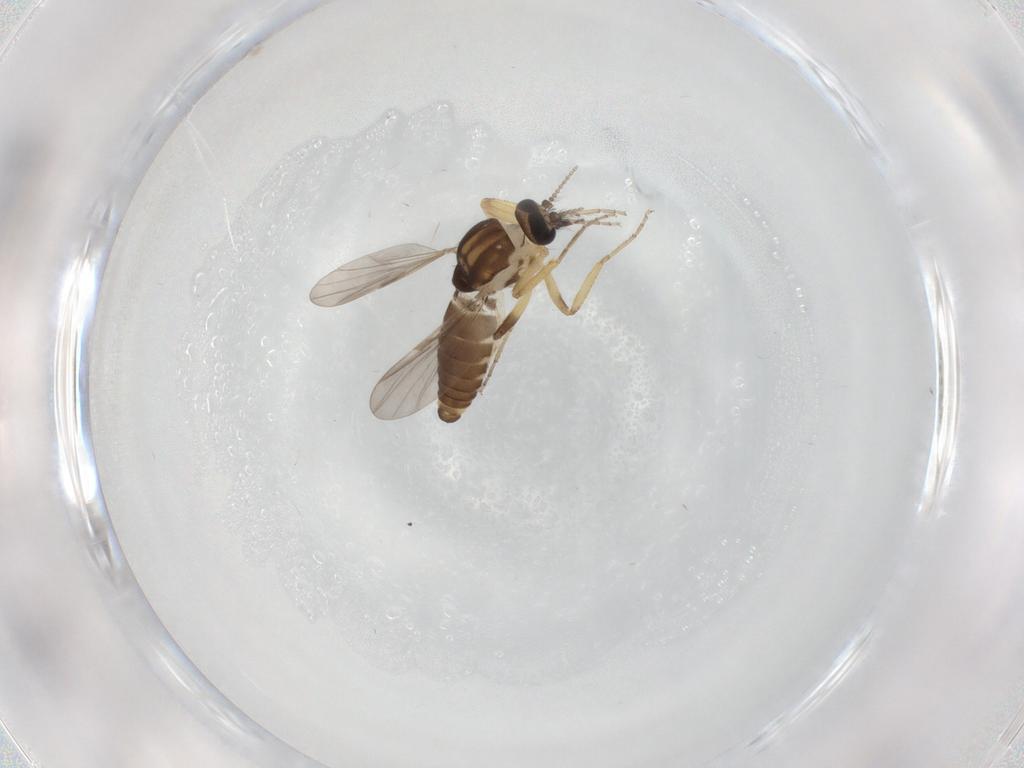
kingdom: Animalia
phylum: Arthropoda
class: Insecta
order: Diptera
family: Ceratopogonidae
